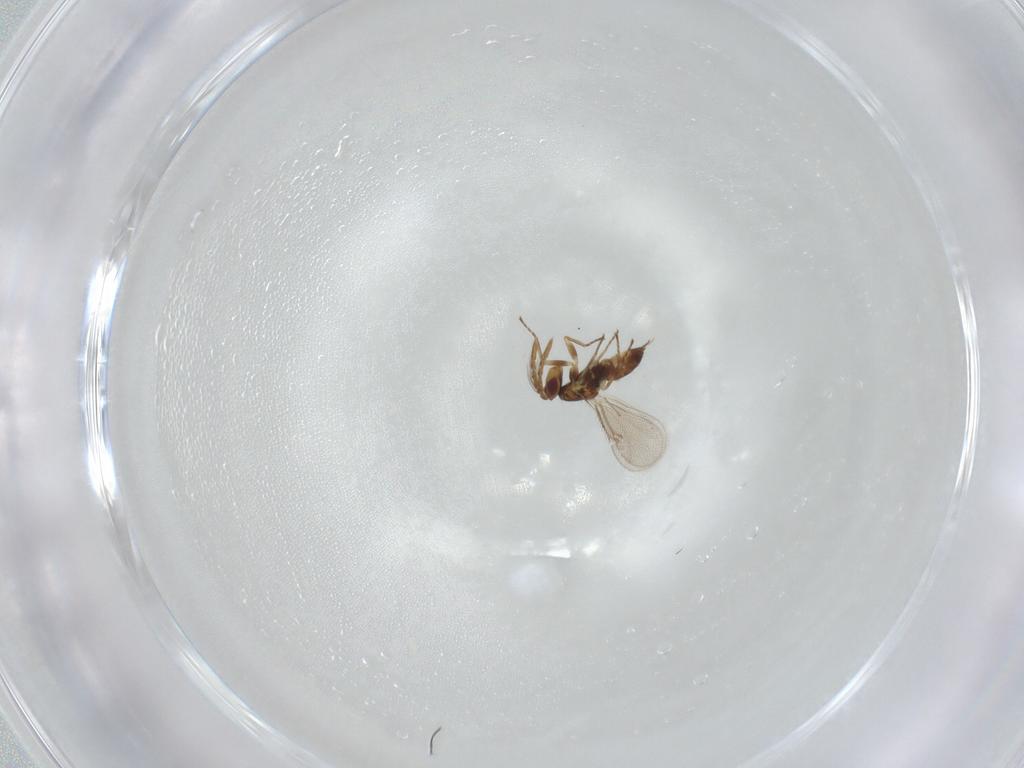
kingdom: Animalia
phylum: Arthropoda
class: Insecta
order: Hymenoptera
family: Eulophidae
